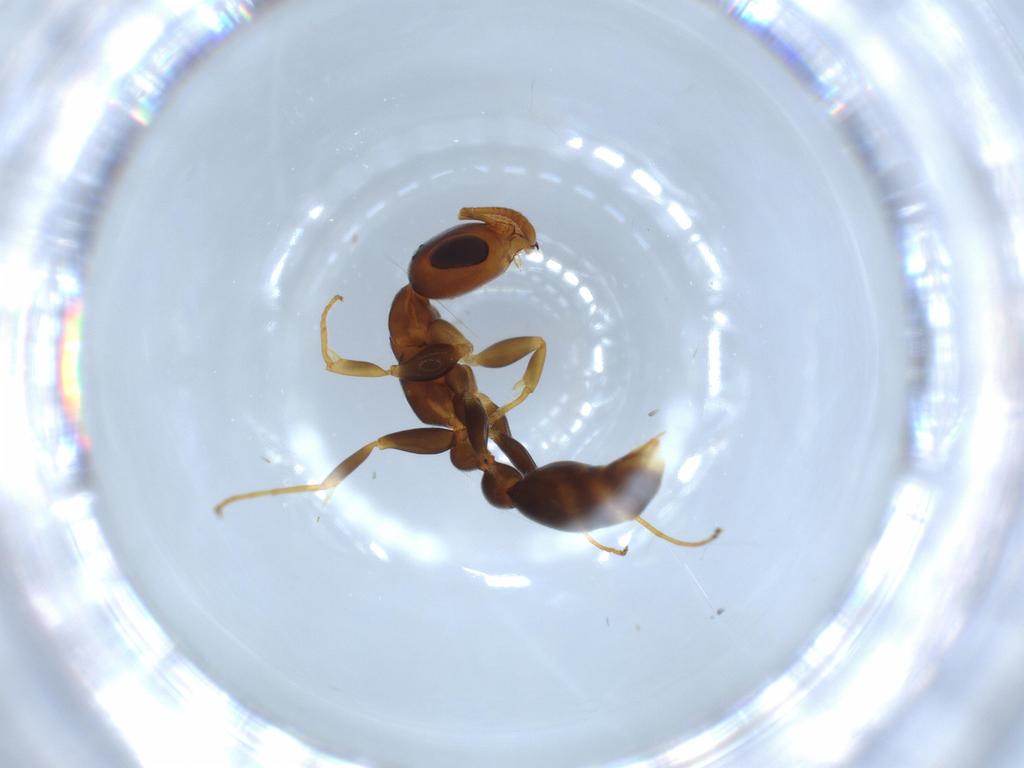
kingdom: Animalia
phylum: Arthropoda
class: Insecta
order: Hymenoptera
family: Formicidae
